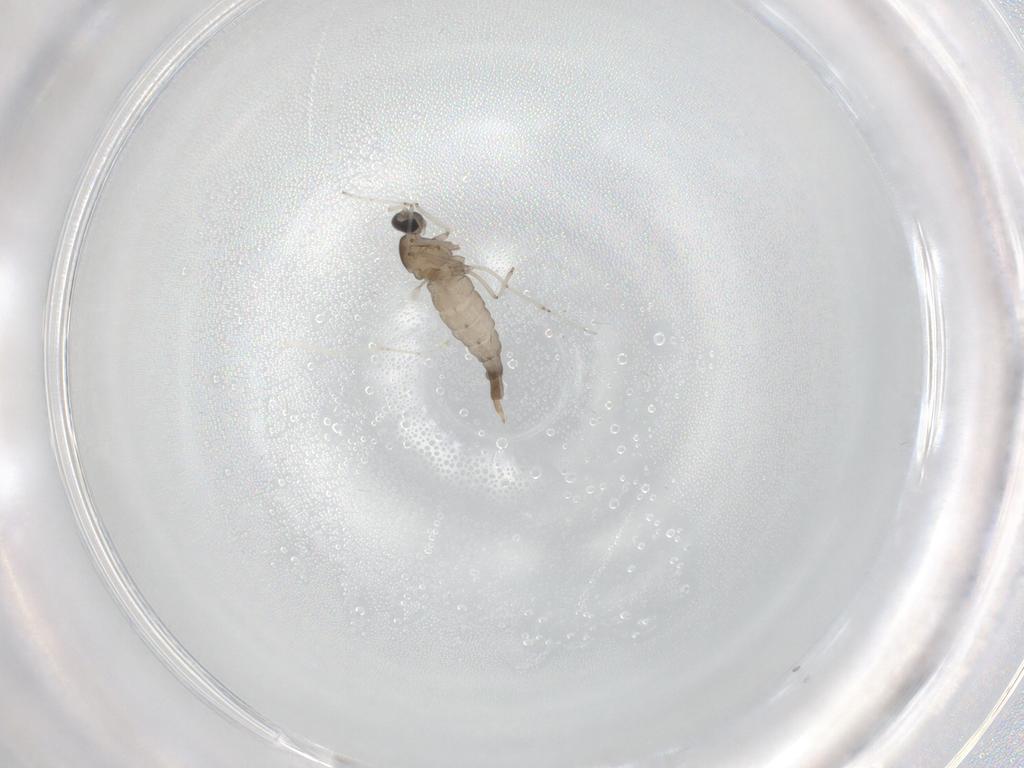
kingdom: Animalia
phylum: Arthropoda
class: Insecta
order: Diptera
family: Cecidomyiidae
